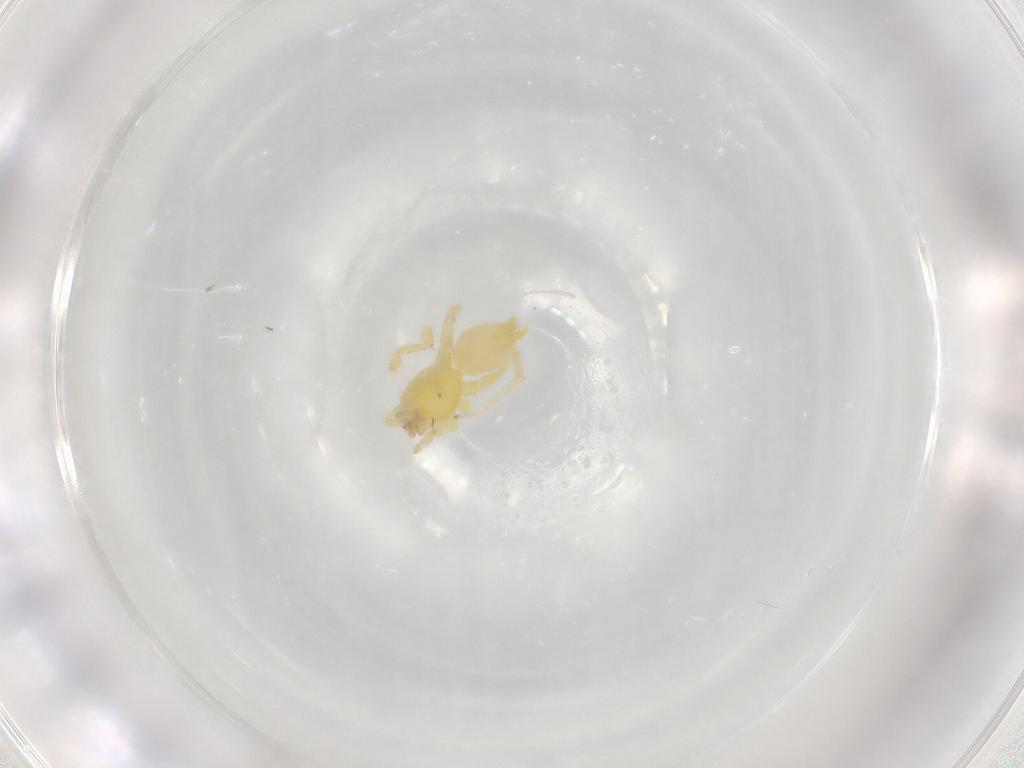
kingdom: Animalia
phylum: Arthropoda
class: Arachnida
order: Araneae
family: Clubionidae
